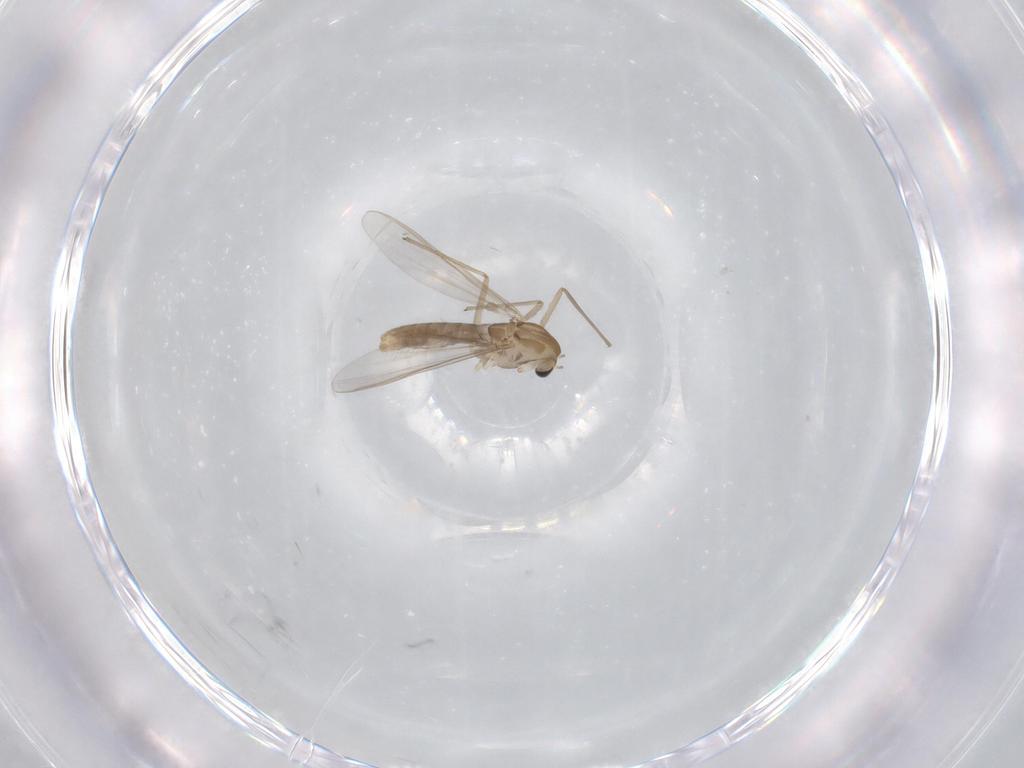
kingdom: Animalia
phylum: Arthropoda
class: Insecta
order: Diptera
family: Chironomidae
